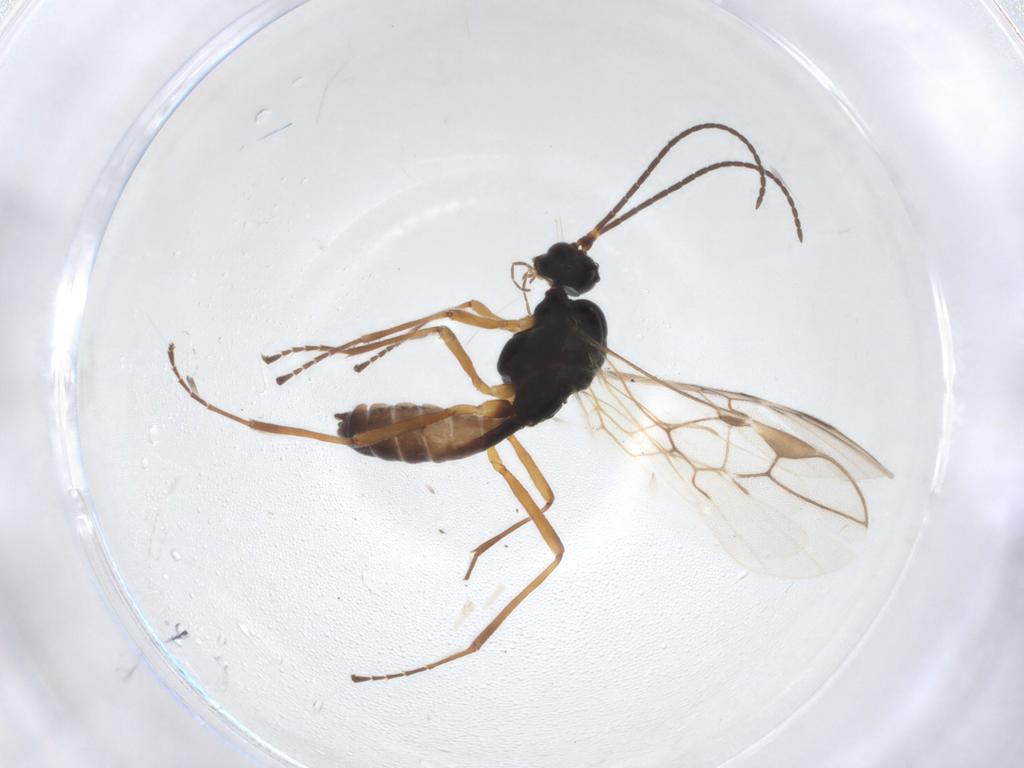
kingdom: Animalia
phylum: Arthropoda
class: Insecta
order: Hymenoptera
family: Braconidae
